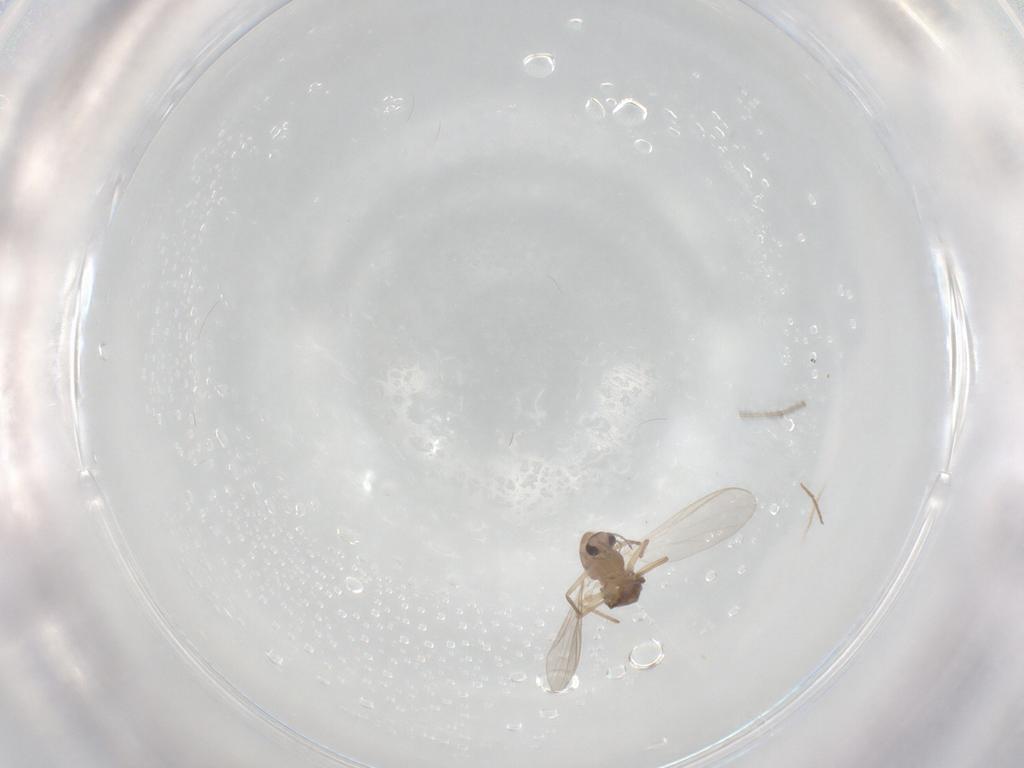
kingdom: Animalia
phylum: Arthropoda
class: Insecta
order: Diptera
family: Chironomidae
